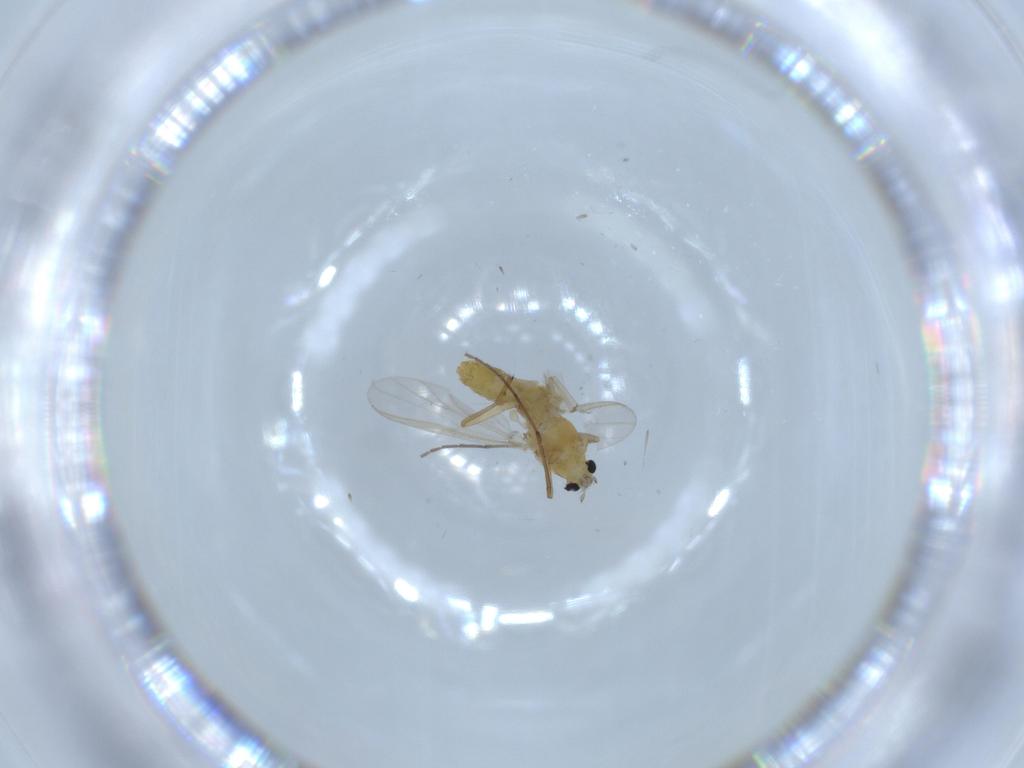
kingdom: Animalia
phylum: Arthropoda
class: Insecta
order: Diptera
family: Chironomidae
